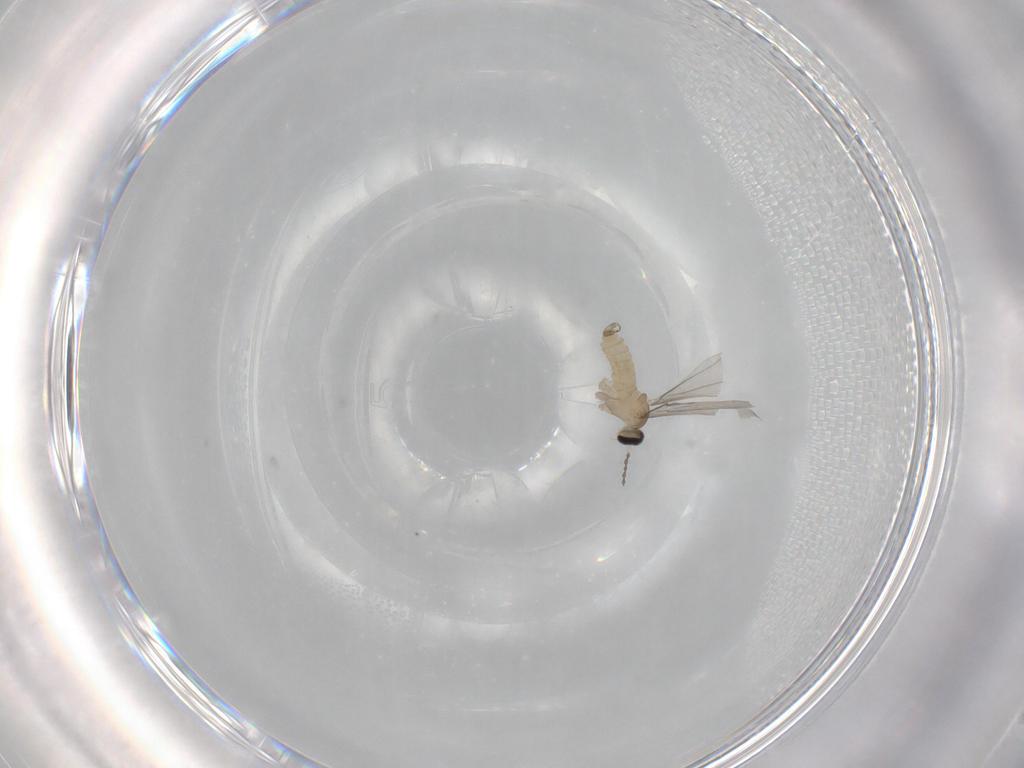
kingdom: Animalia
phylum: Arthropoda
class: Insecta
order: Diptera
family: Cecidomyiidae
